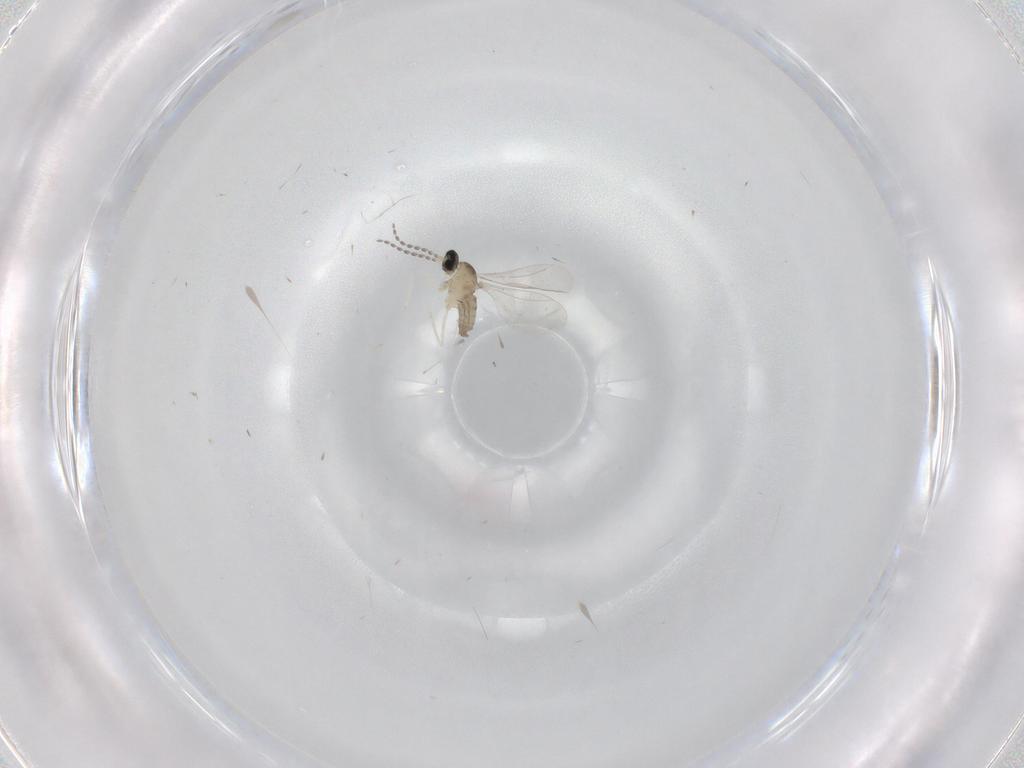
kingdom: Animalia
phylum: Arthropoda
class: Insecta
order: Diptera
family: Cecidomyiidae
